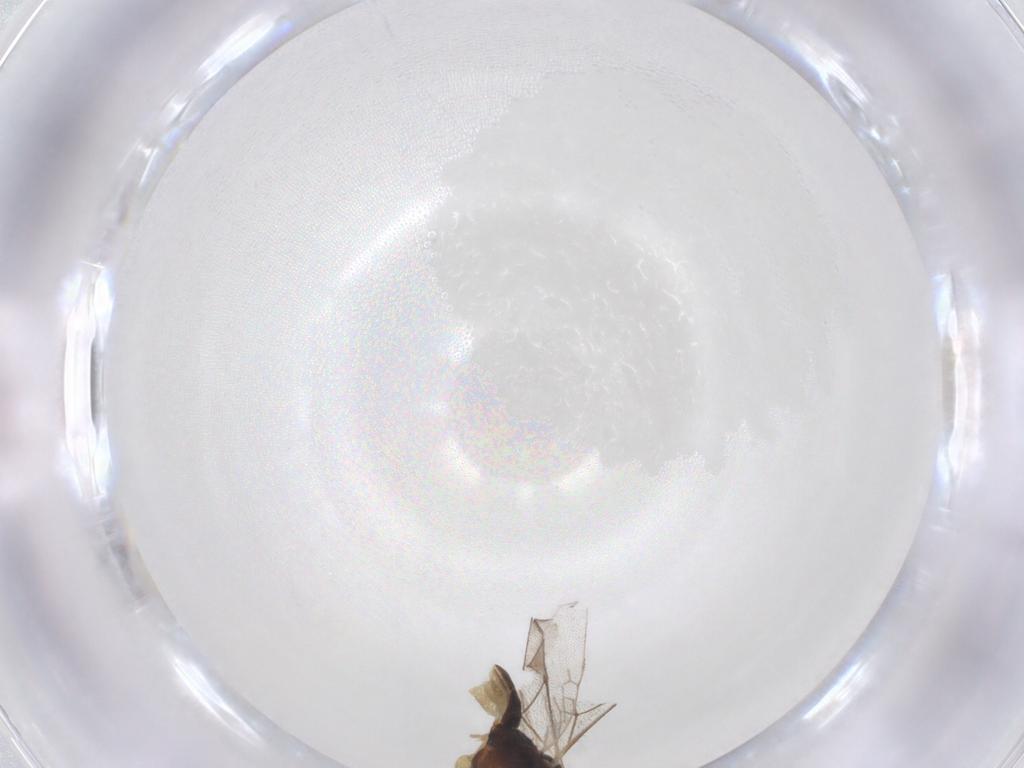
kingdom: Animalia
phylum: Arthropoda
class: Insecta
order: Hymenoptera
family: Ichneumonidae
